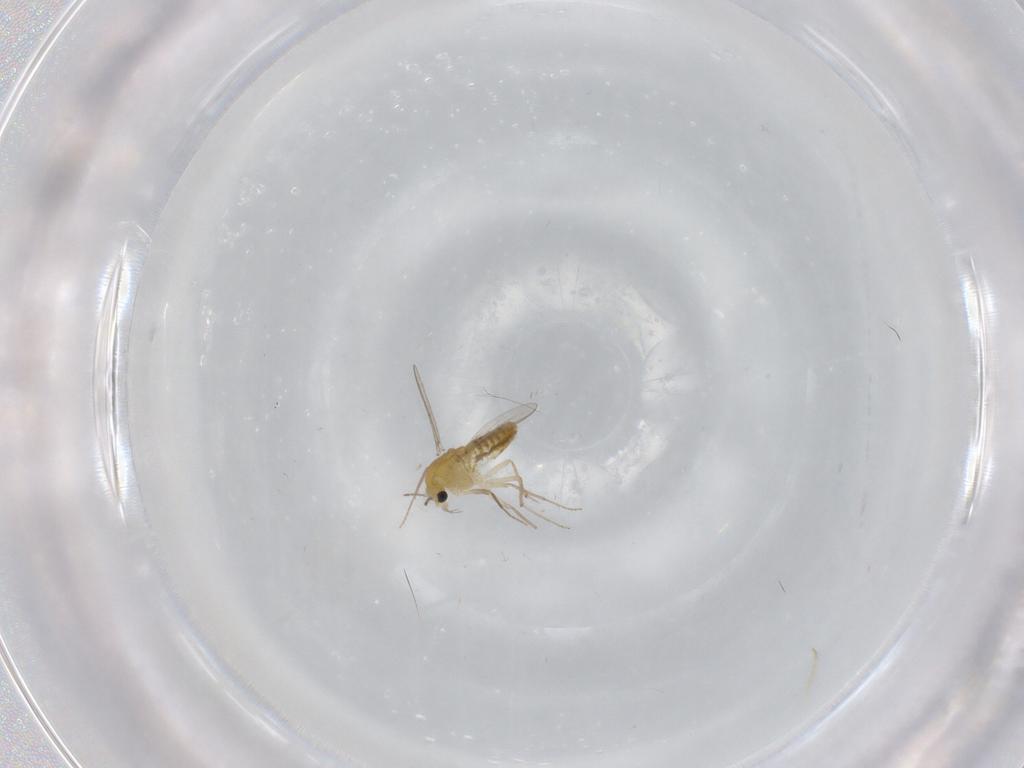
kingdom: Animalia
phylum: Arthropoda
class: Insecta
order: Diptera
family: Chironomidae
